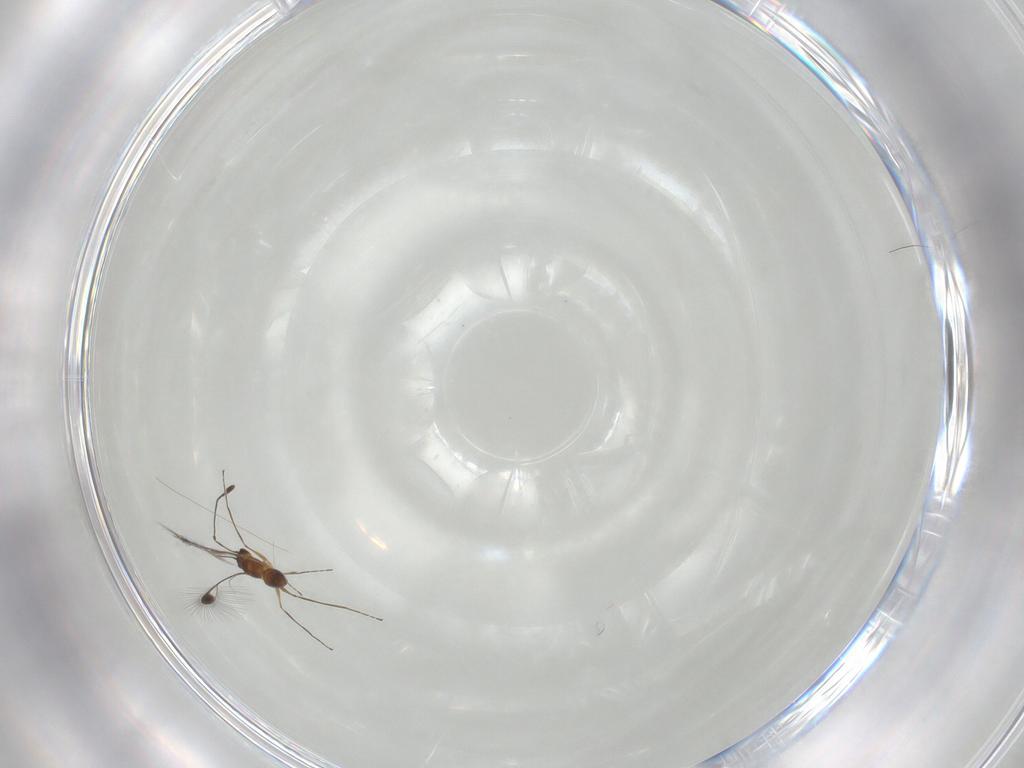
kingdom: Animalia
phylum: Arthropoda
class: Insecta
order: Hymenoptera
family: Mymaridae
